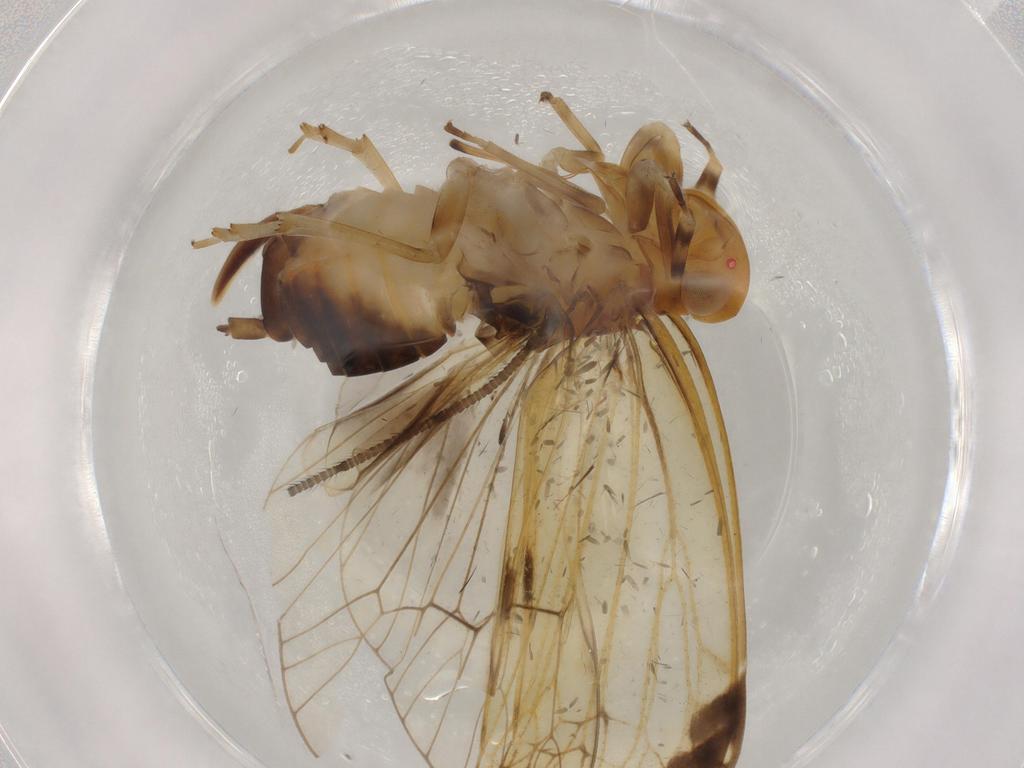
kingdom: Animalia
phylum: Arthropoda
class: Insecta
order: Hemiptera
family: Cixiidae
